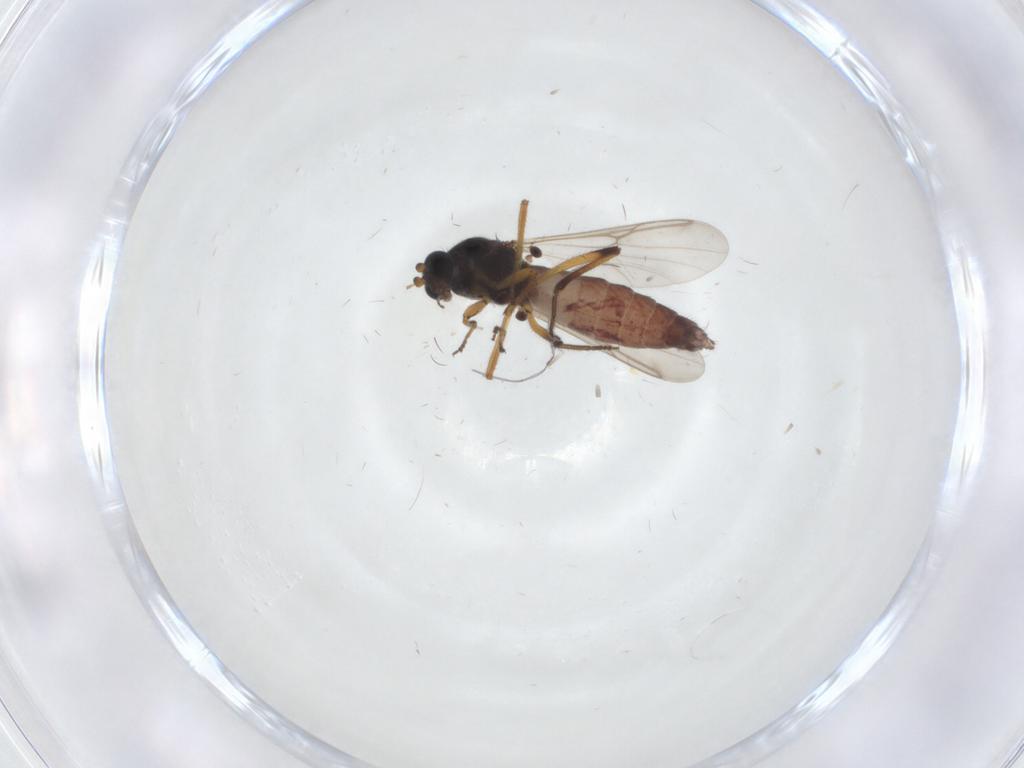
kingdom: Animalia
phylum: Arthropoda
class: Insecta
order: Diptera
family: Ceratopogonidae
